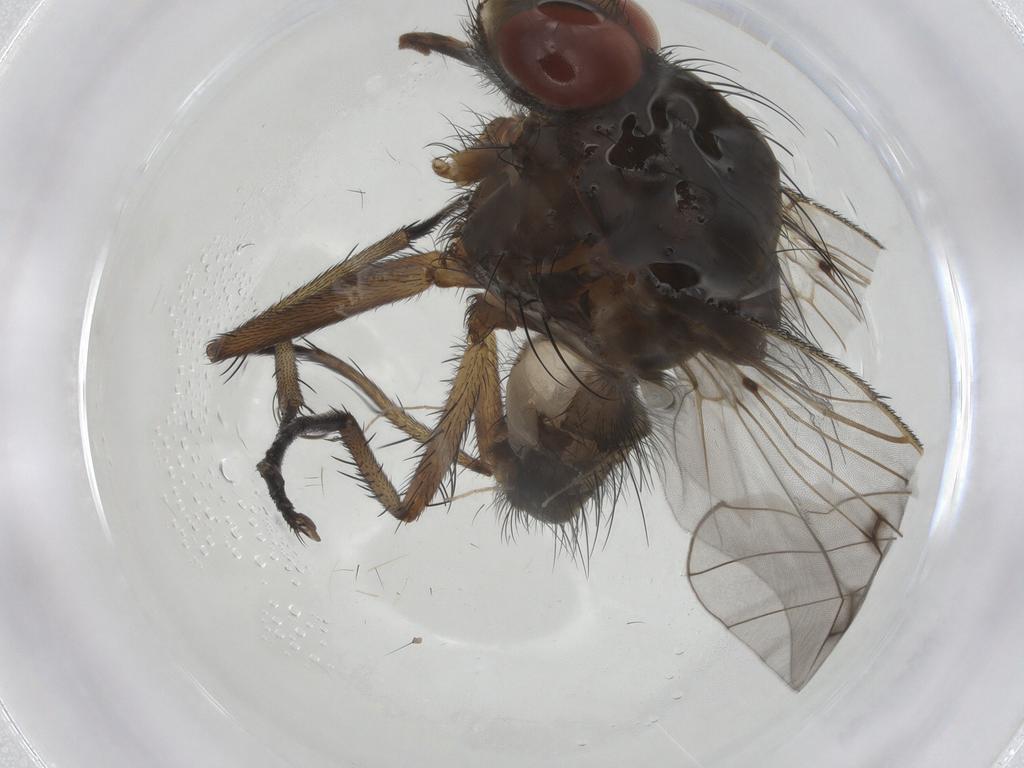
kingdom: Animalia
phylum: Arthropoda
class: Insecta
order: Diptera
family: Anthomyiidae
